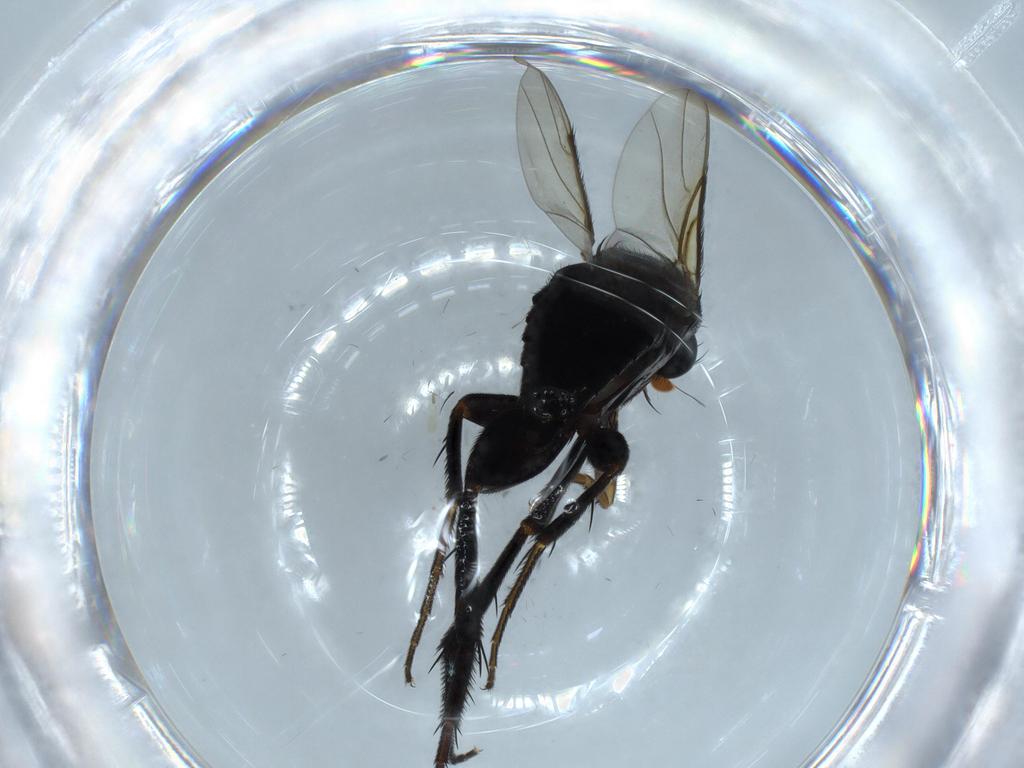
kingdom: Animalia
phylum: Arthropoda
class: Insecta
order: Diptera
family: Phoridae
